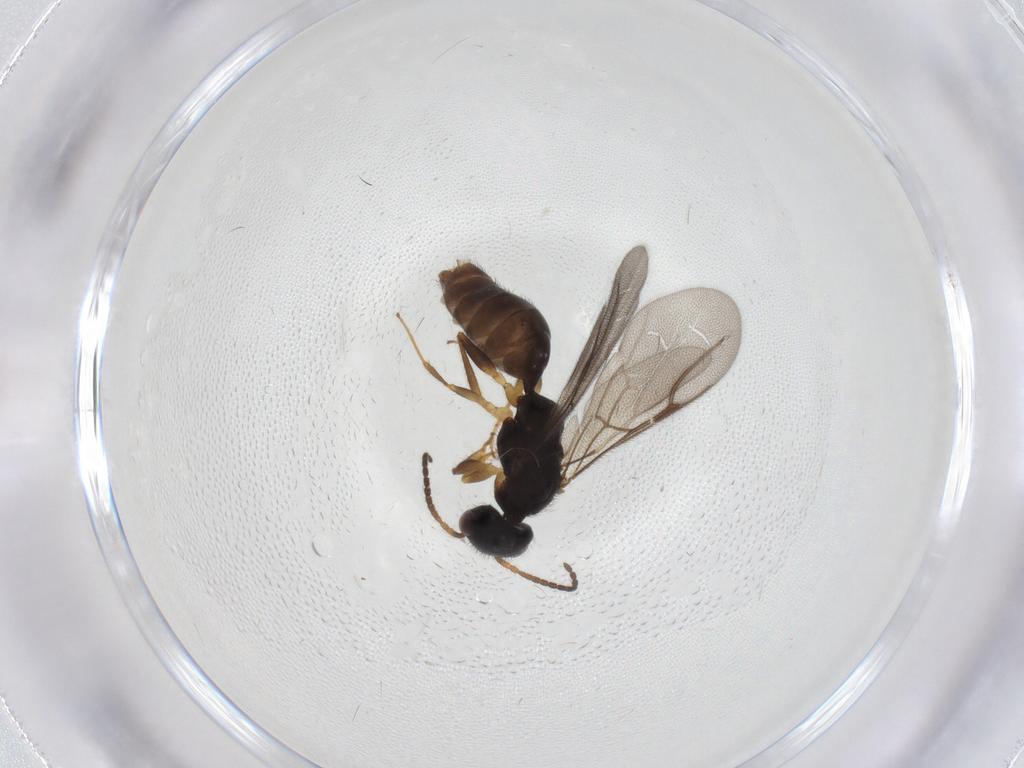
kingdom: Animalia
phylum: Arthropoda
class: Insecta
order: Hymenoptera
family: Bethylidae
